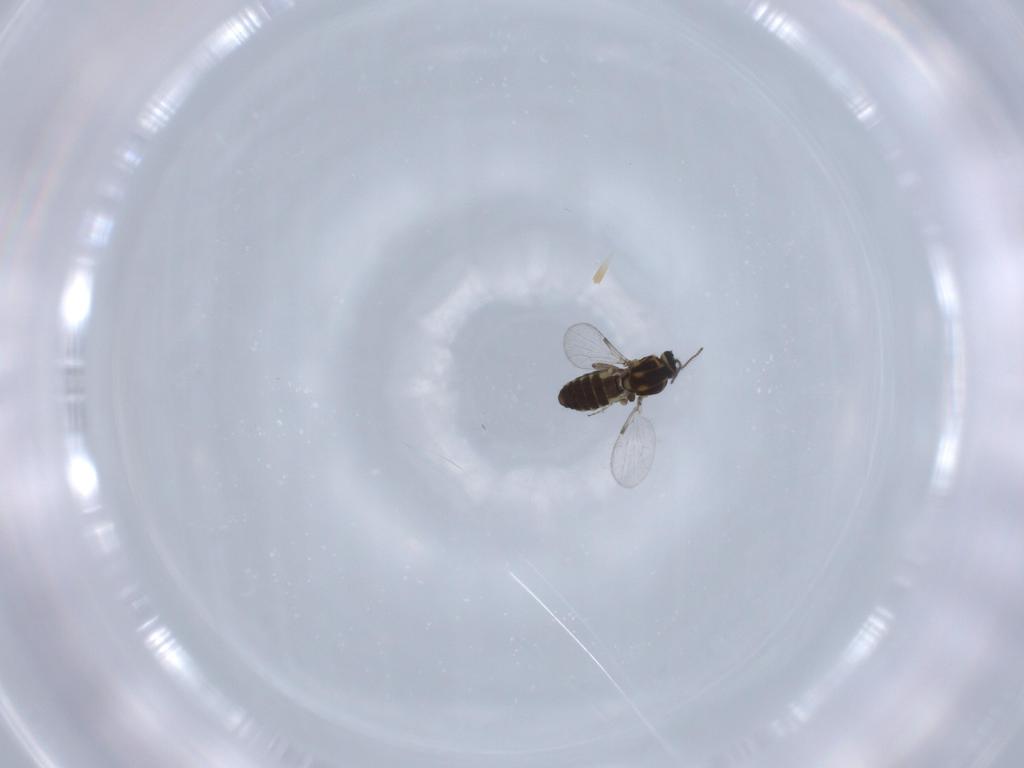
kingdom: Animalia
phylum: Arthropoda
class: Insecta
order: Diptera
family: Ceratopogonidae
